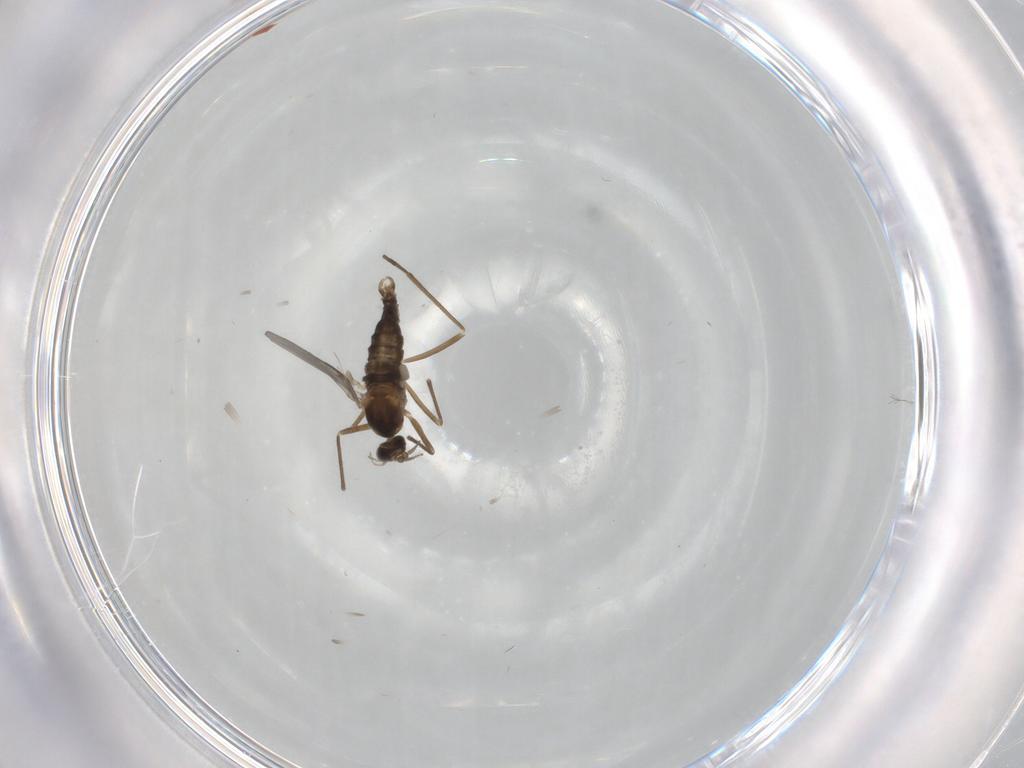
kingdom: Animalia
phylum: Arthropoda
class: Insecta
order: Diptera
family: Cecidomyiidae
